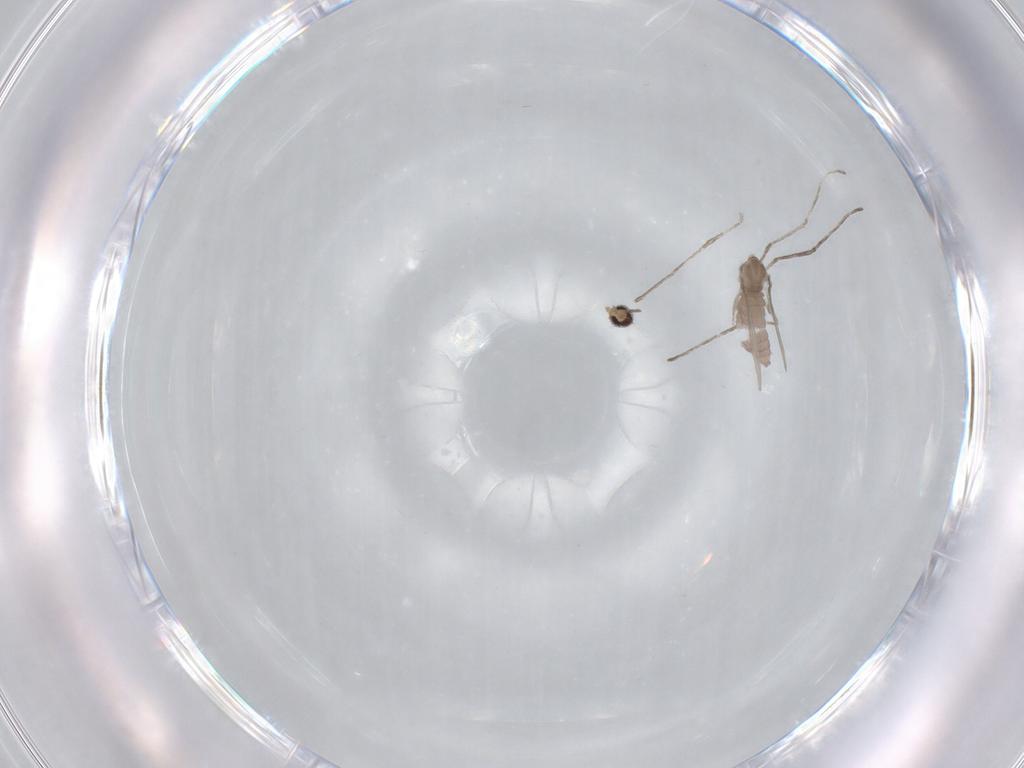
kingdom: Animalia
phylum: Arthropoda
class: Insecta
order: Diptera
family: Cecidomyiidae
